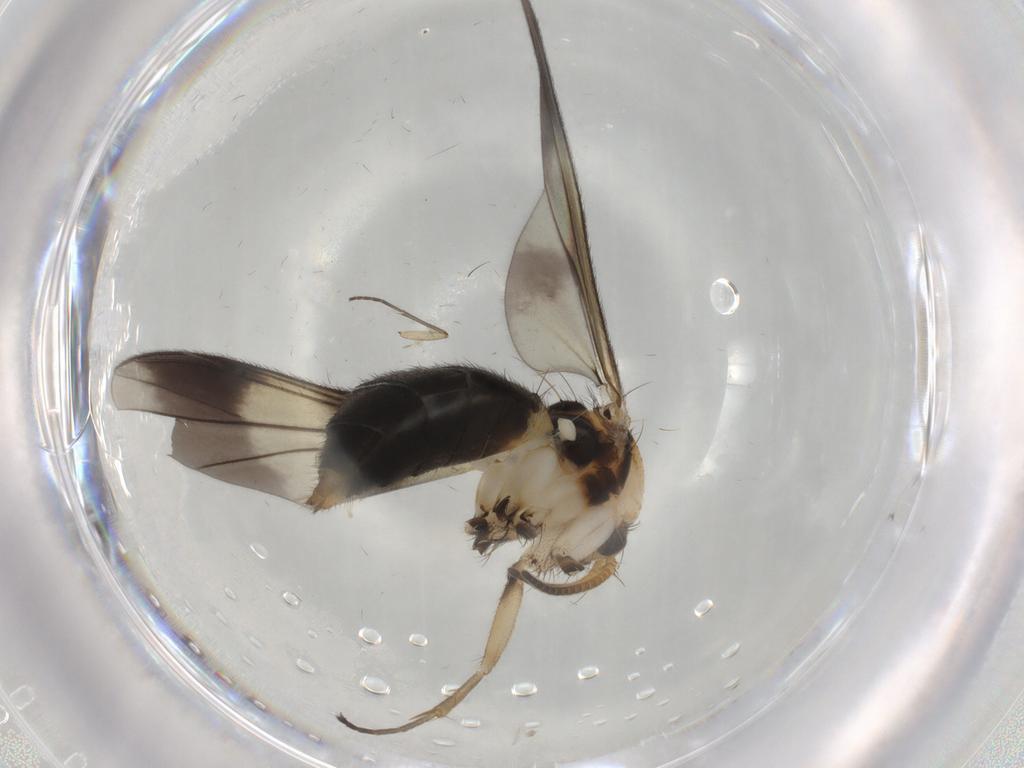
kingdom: Animalia
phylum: Arthropoda
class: Insecta
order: Diptera
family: Mycetophilidae
